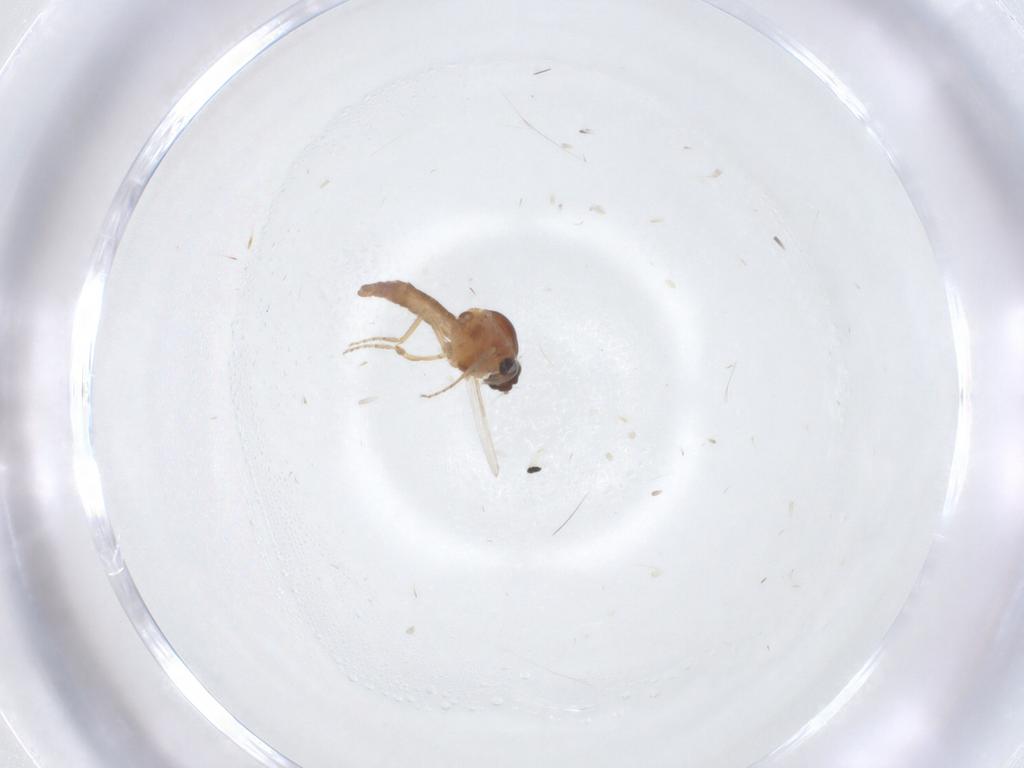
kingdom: Animalia
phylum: Arthropoda
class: Insecta
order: Diptera
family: Ceratopogonidae
